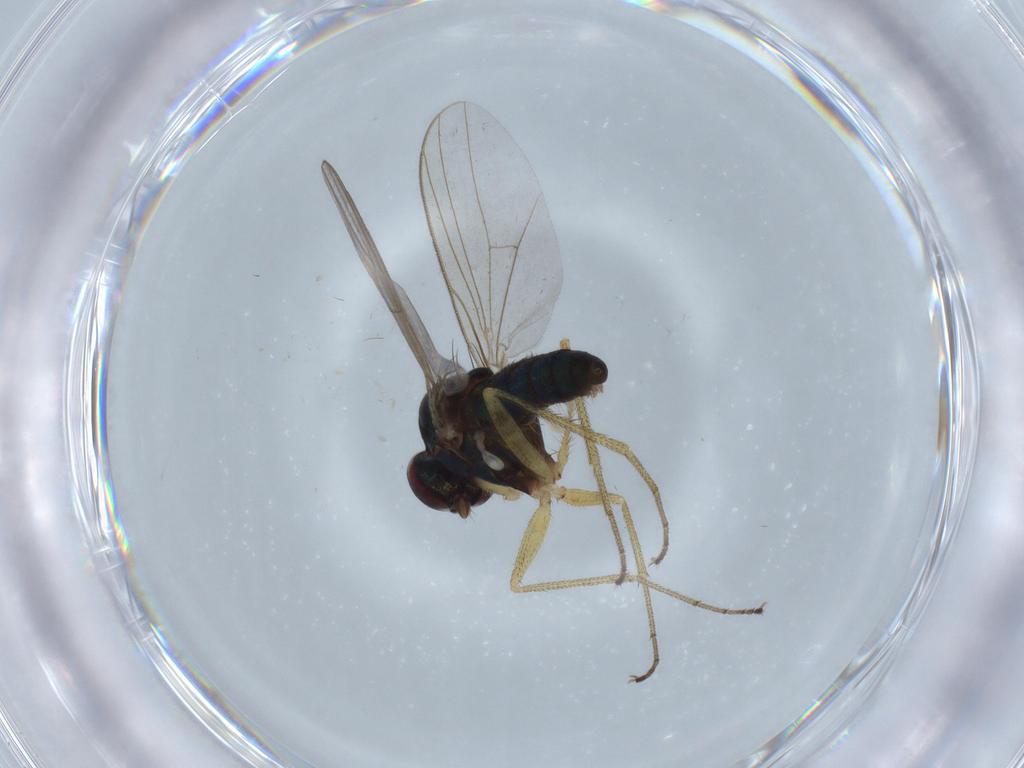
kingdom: Animalia
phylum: Arthropoda
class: Insecta
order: Diptera
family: Dolichopodidae
